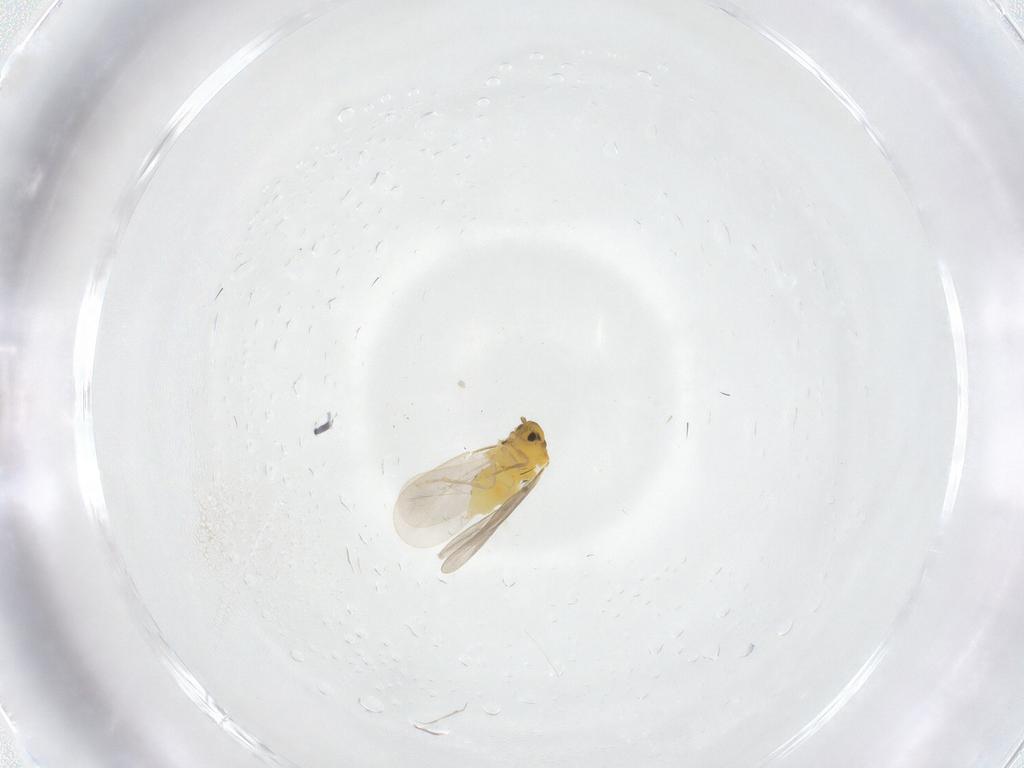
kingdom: Animalia
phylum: Arthropoda
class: Insecta
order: Hemiptera
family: Aleyrodidae
